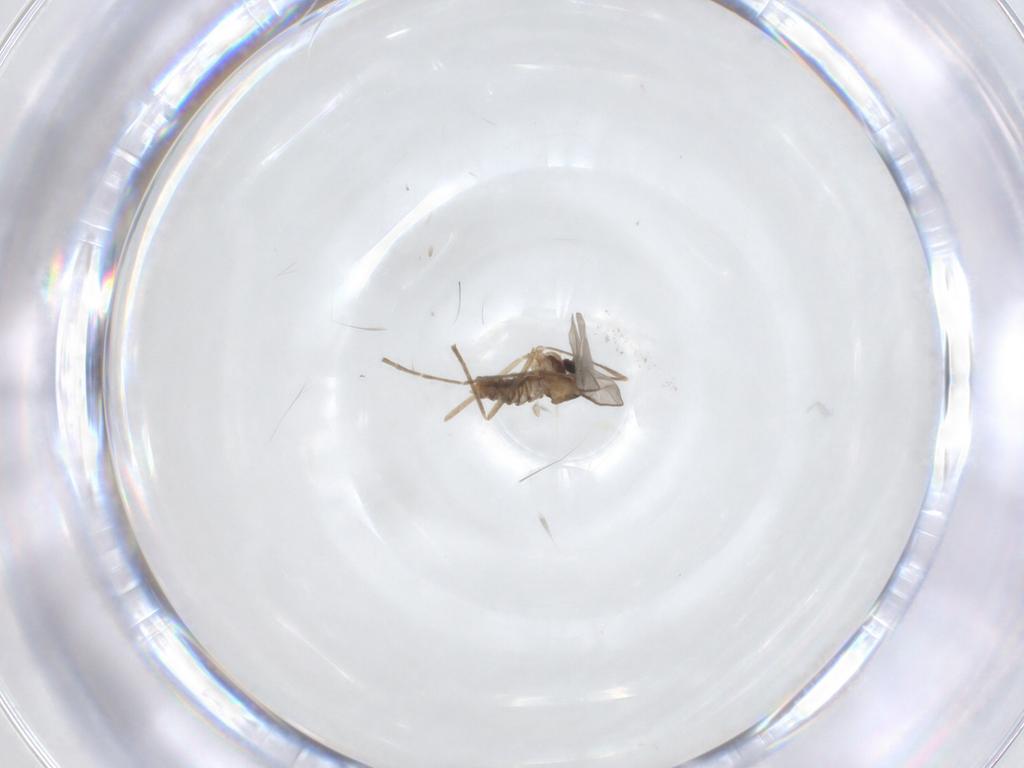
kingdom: Animalia
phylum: Arthropoda
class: Insecta
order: Diptera
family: Cecidomyiidae
